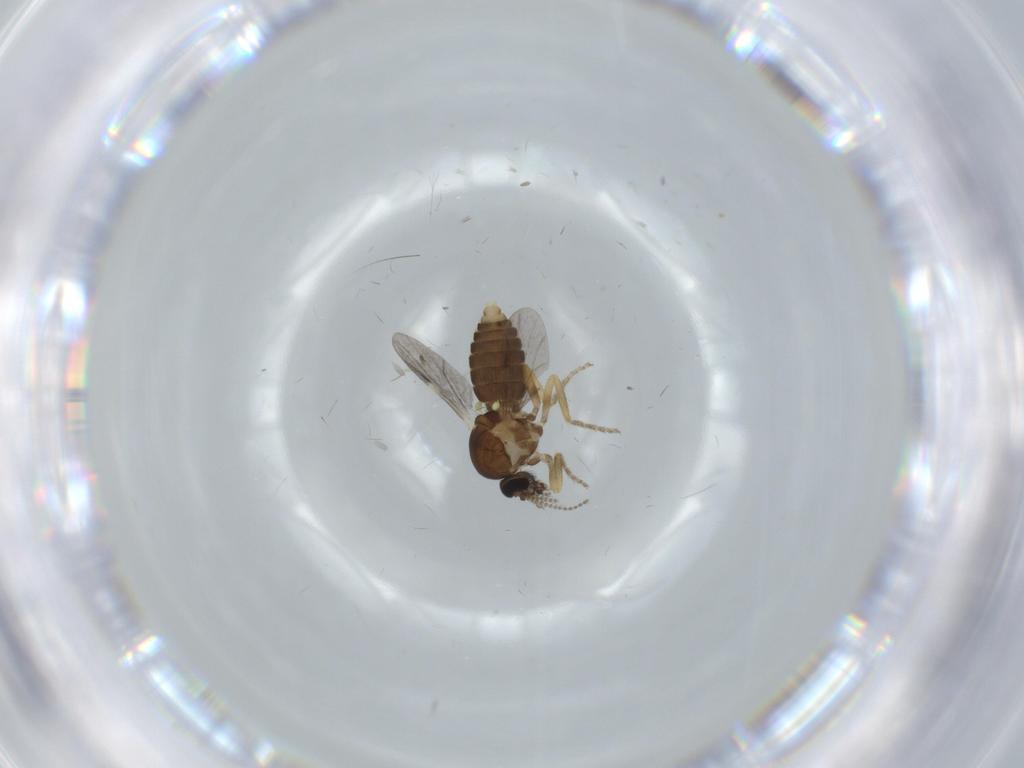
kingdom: Animalia
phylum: Arthropoda
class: Insecta
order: Diptera
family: Ceratopogonidae
